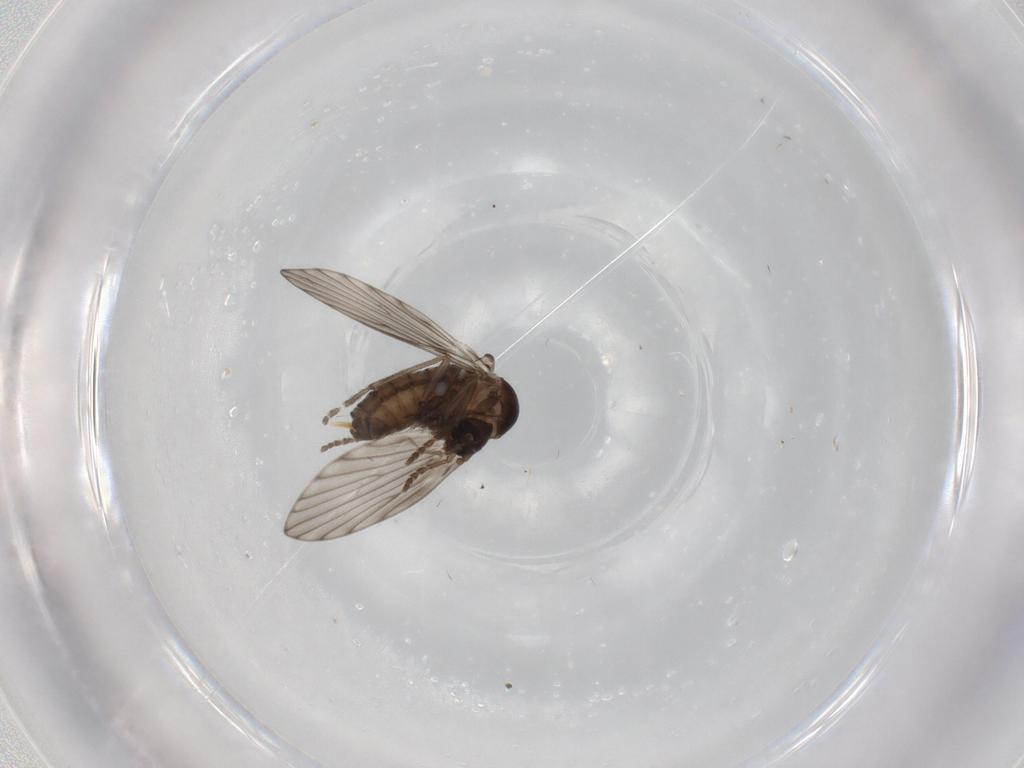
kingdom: Animalia
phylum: Arthropoda
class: Insecta
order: Diptera
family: Psychodidae
